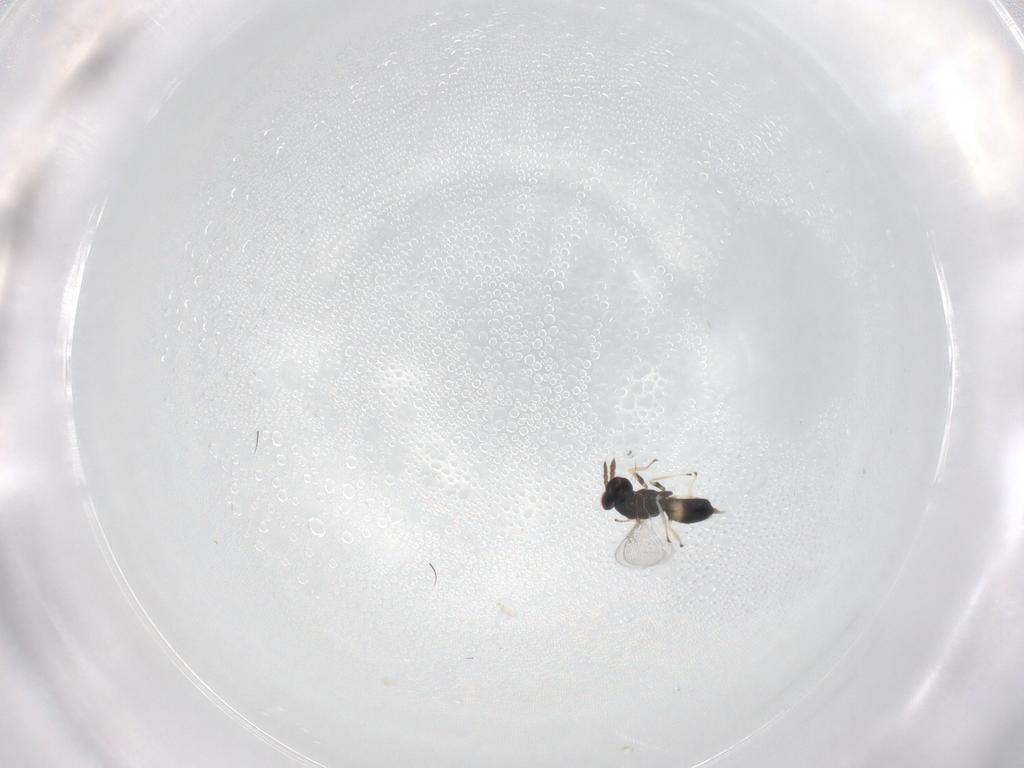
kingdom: Animalia
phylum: Arthropoda
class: Insecta
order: Hymenoptera
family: Eulophidae
